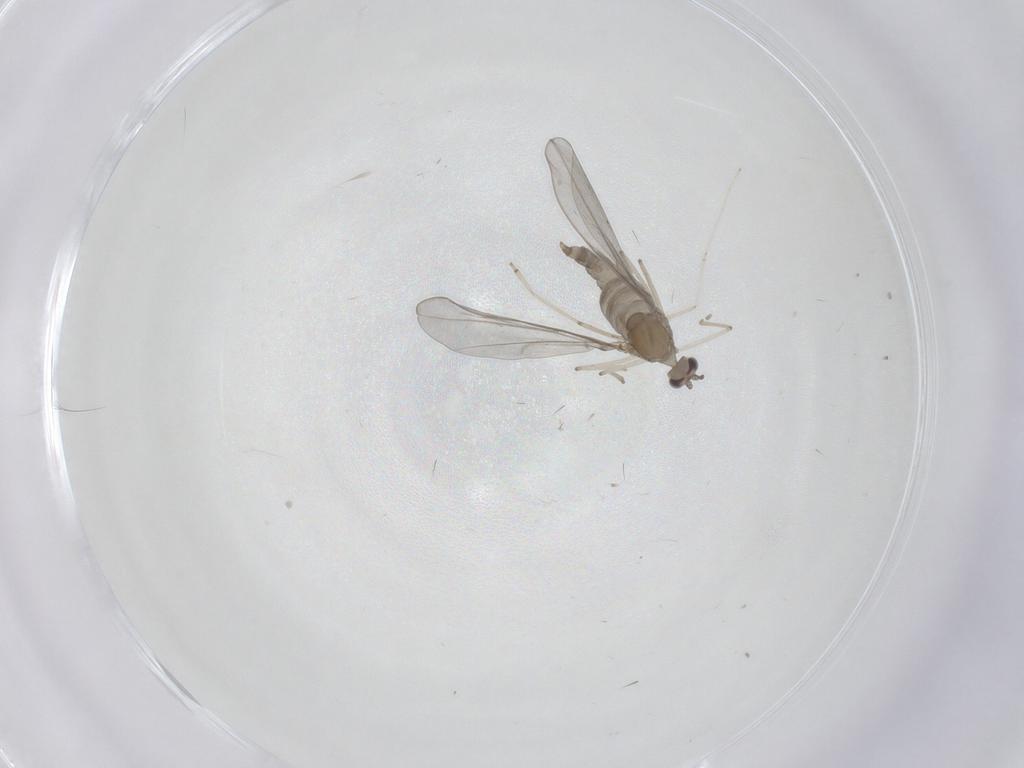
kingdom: Animalia
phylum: Arthropoda
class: Insecta
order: Diptera
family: Cecidomyiidae
